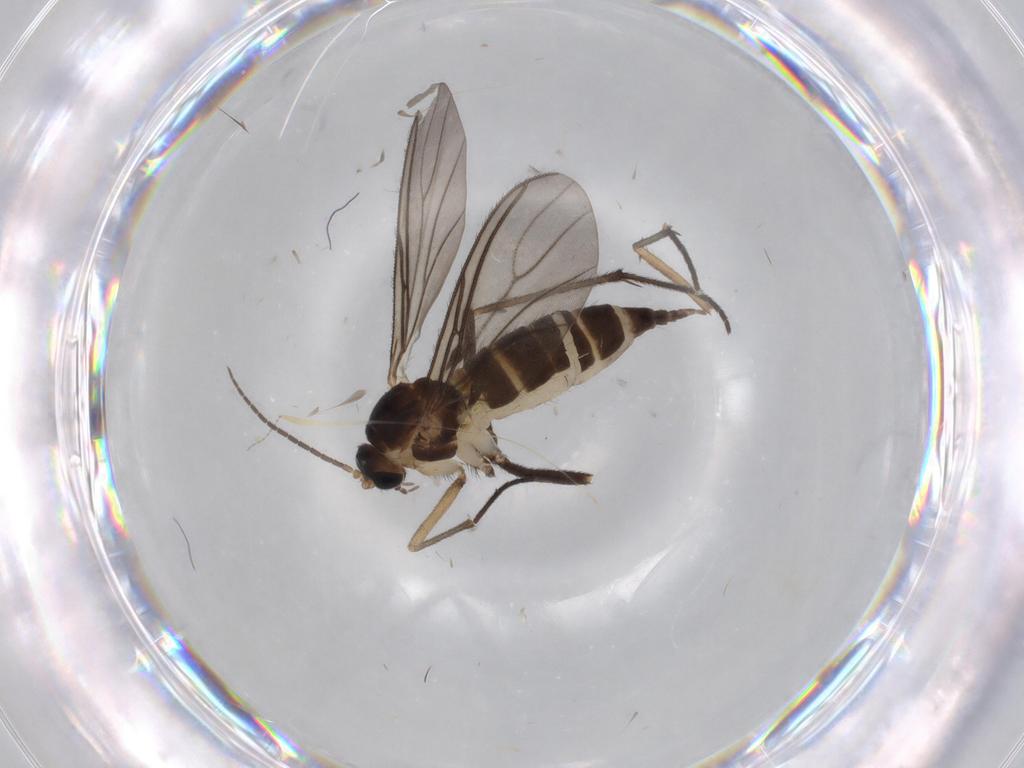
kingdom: Animalia
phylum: Arthropoda
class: Insecta
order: Diptera
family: Sciaridae
